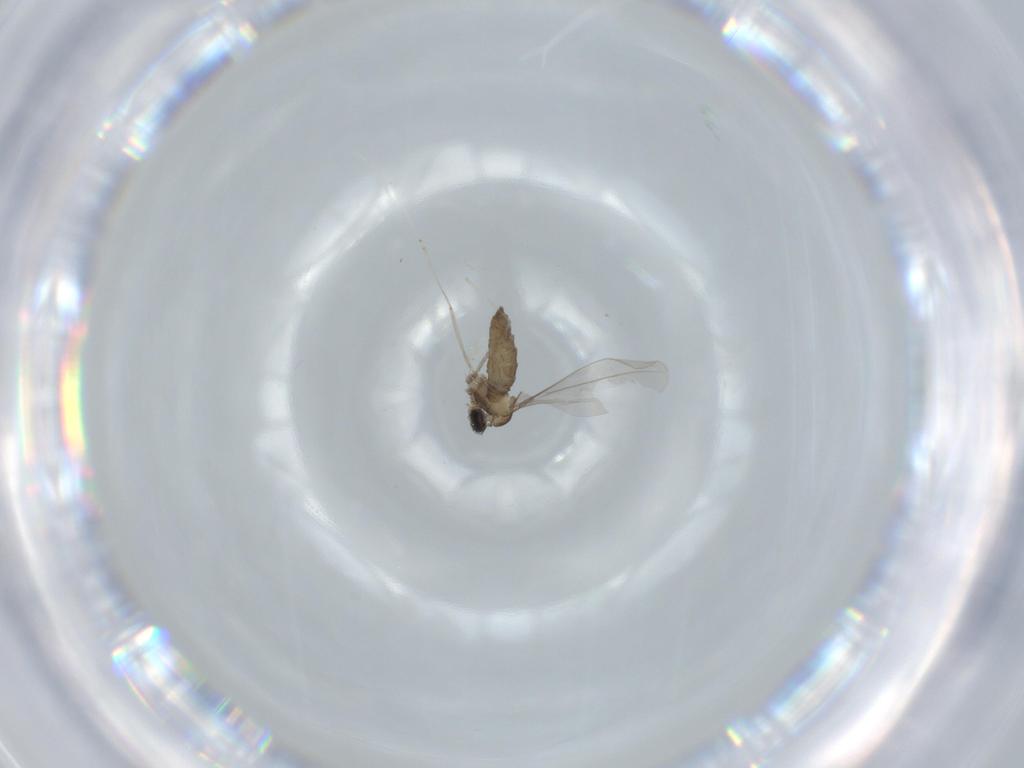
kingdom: Animalia
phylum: Arthropoda
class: Insecta
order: Diptera
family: Cecidomyiidae
